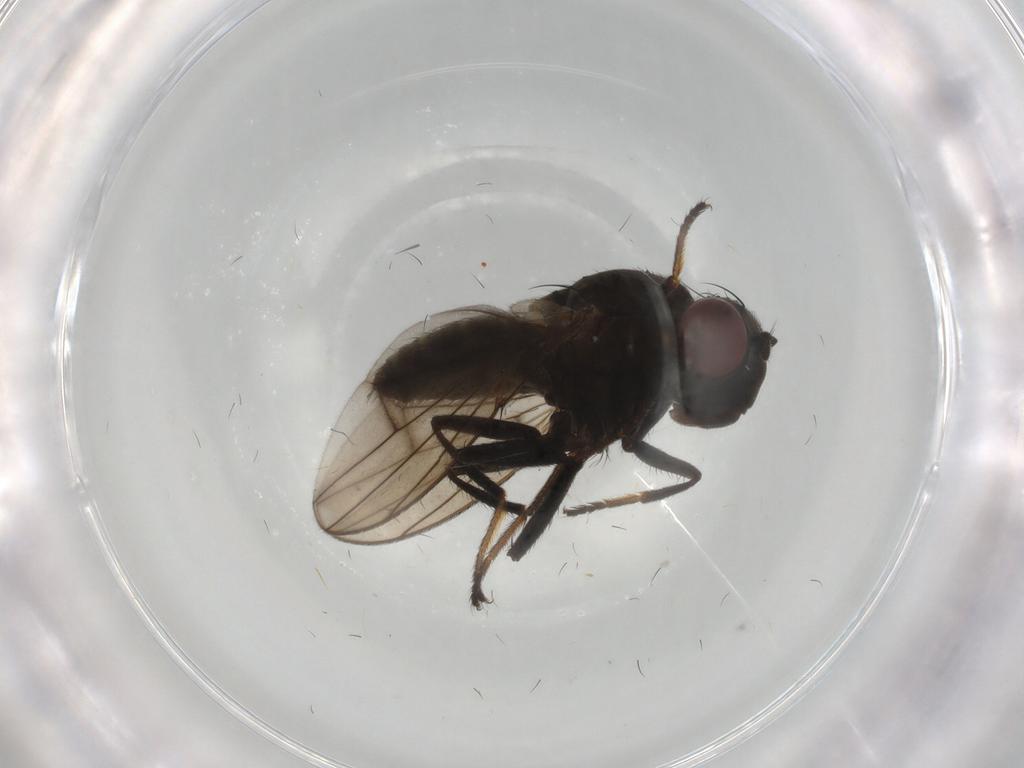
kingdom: Animalia
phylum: Arthropoda
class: Insecta
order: Diptera
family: Cecidomyiidae
